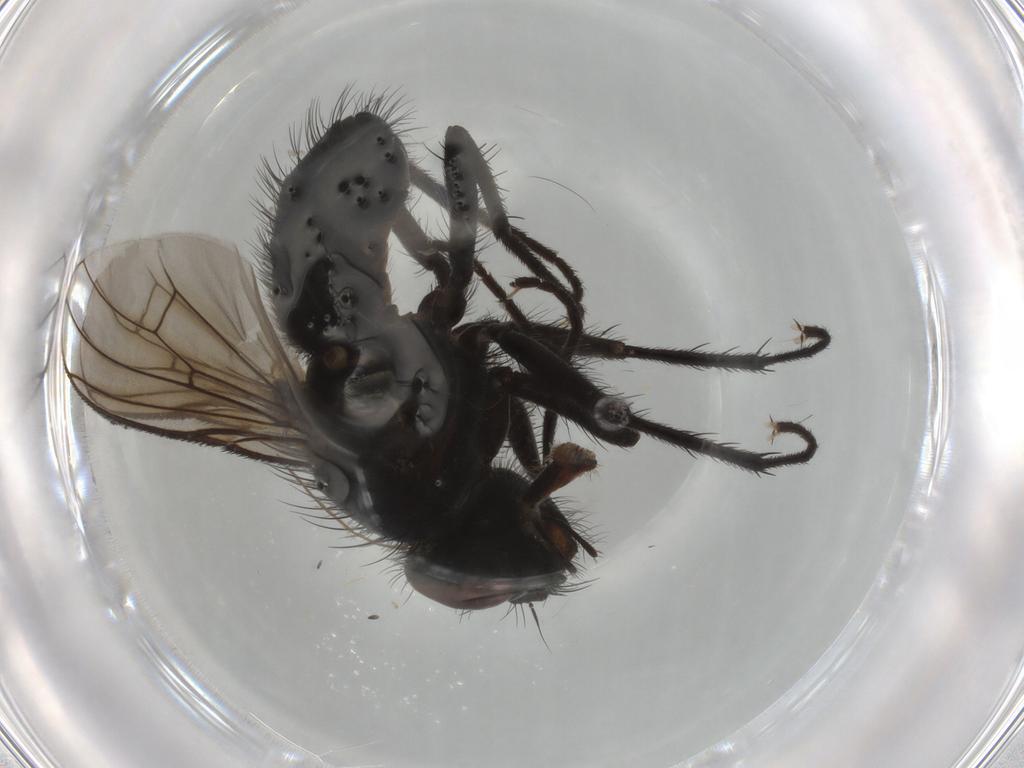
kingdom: Animalia
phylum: Arthropoda
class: Insecta
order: Diptera
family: Muscidae
